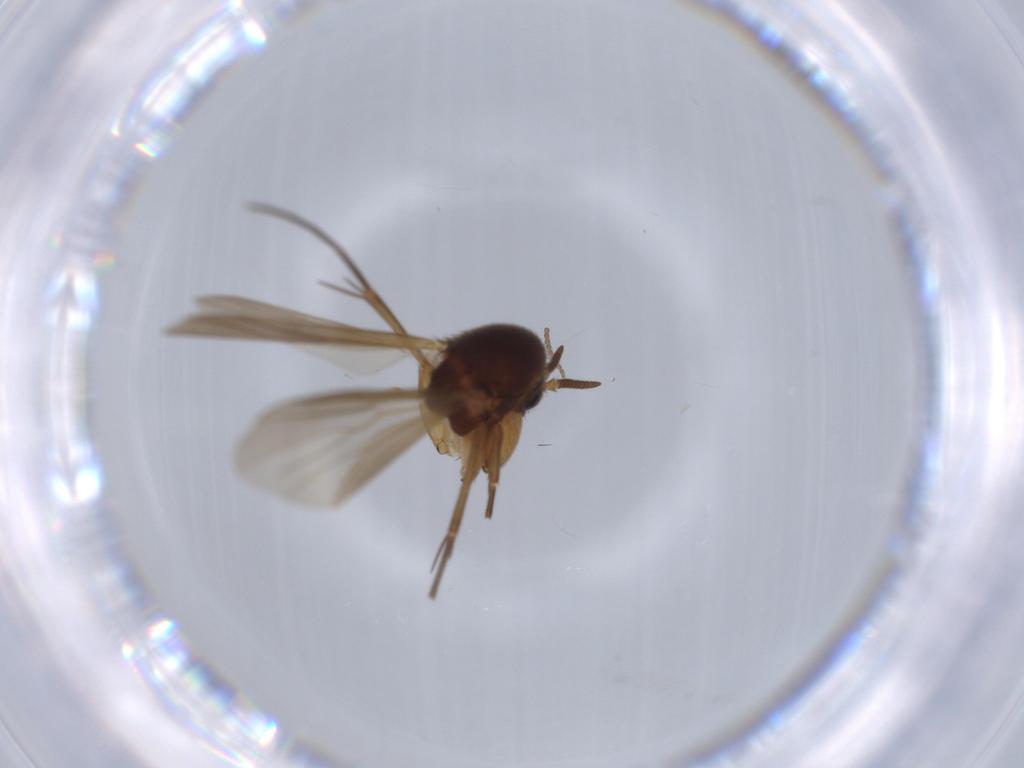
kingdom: Animalia
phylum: Arthropoda
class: Insecta
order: Diptera
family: Mycetophilidae
